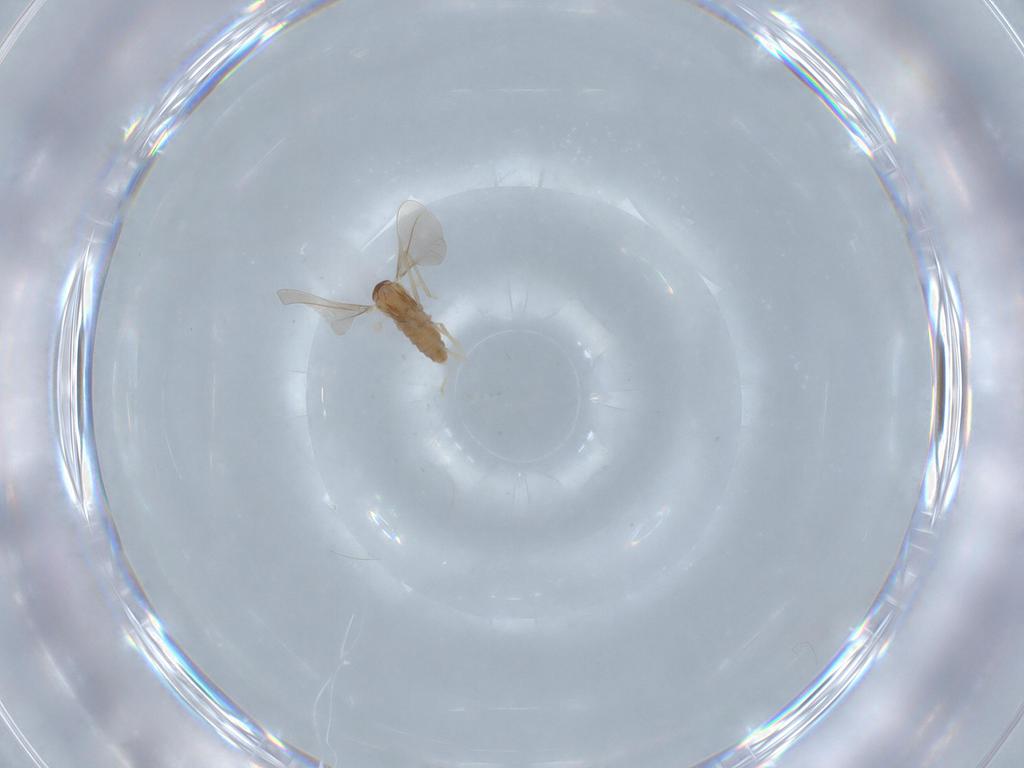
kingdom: Animalia
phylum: Arthropoda
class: Insecta
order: Diptera
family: Cecidomyiidae
